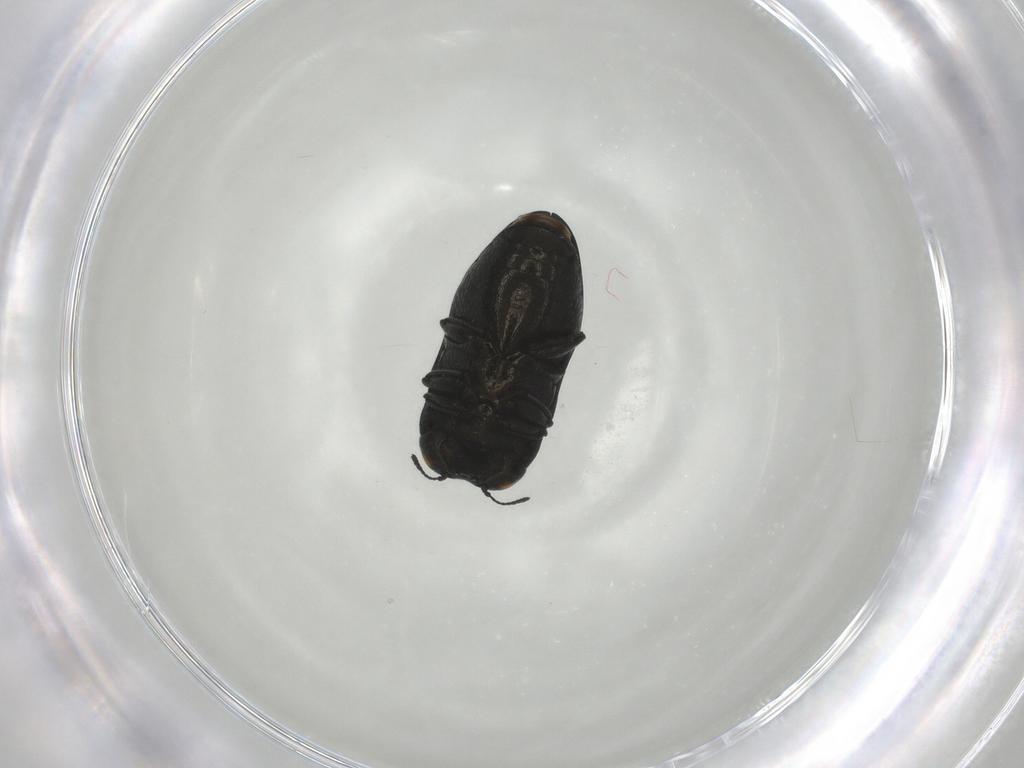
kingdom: Animalia
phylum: Arthropoda
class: Insecta
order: Coleoptera
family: Buprestidae
